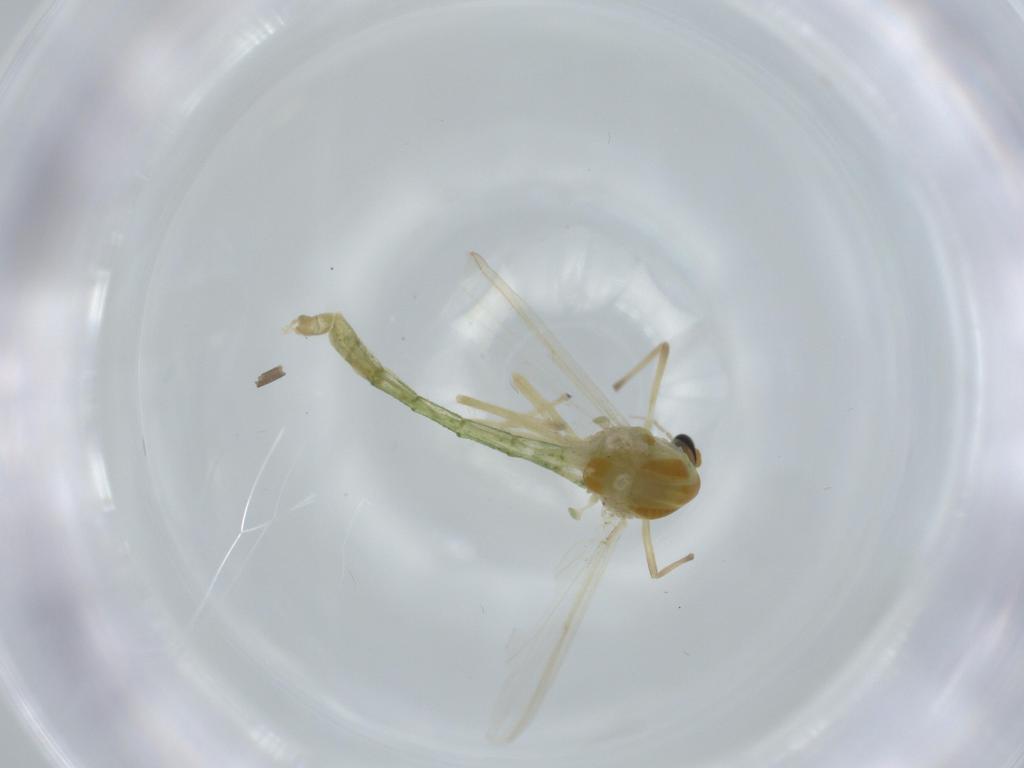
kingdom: Animalia
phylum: Arthropoda
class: Insecta
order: Diptera
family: Chironomidae
